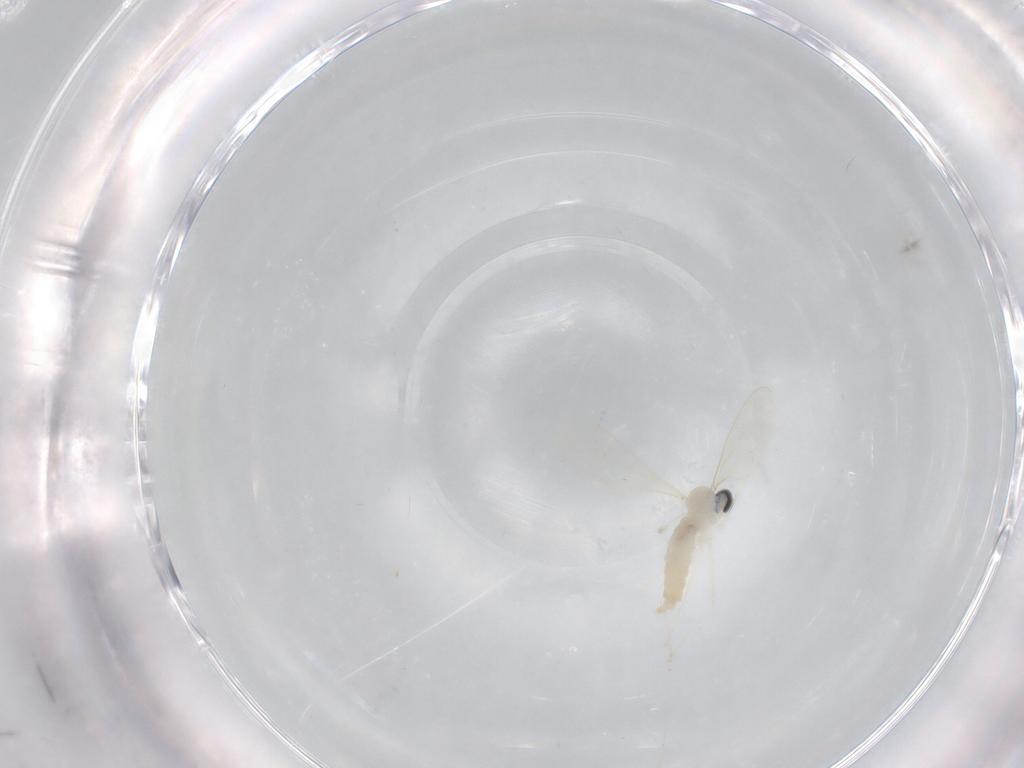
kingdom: Animalia
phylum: Arthropoda
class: Insecta
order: Diptera
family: Cecidomyiidae
